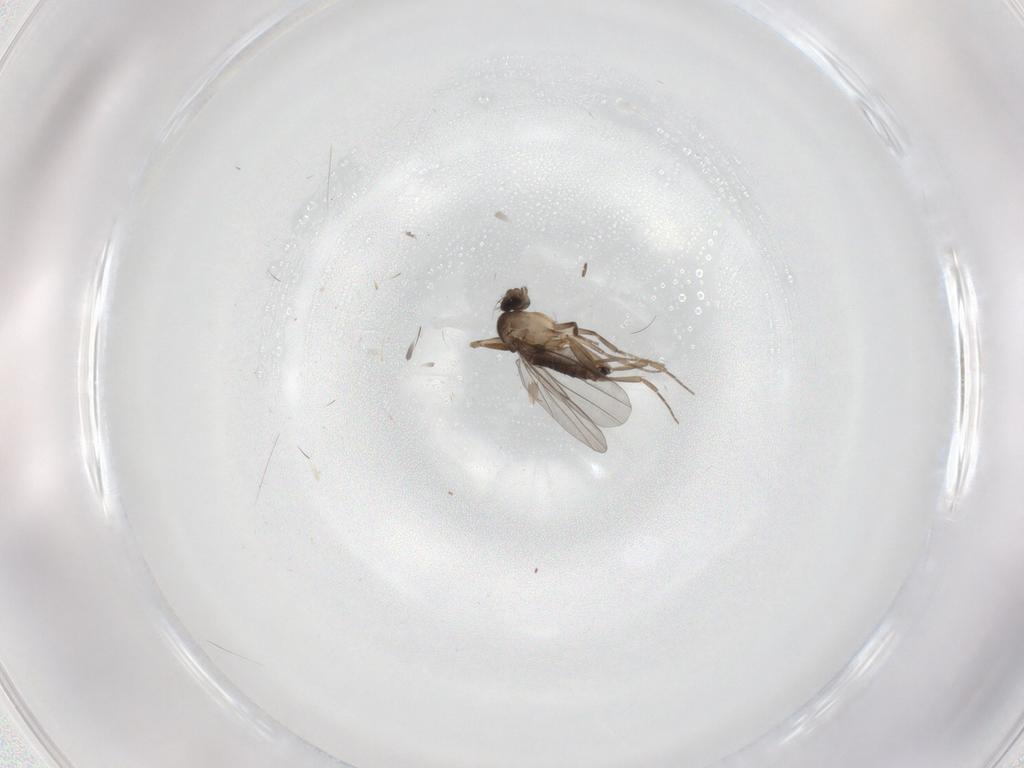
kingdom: Animalia
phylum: Arthropoda
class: Insecta
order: Diptera
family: Phoridae
